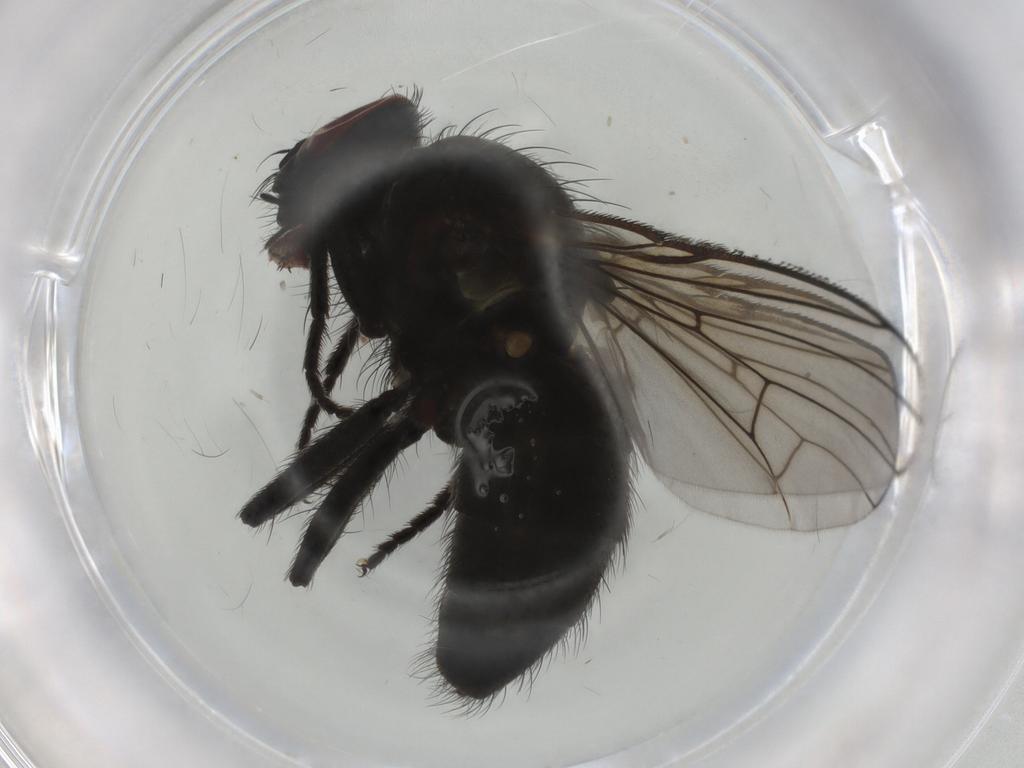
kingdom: Animalia
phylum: Arthropoda
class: Insecta
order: Diptera
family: Muscidae
